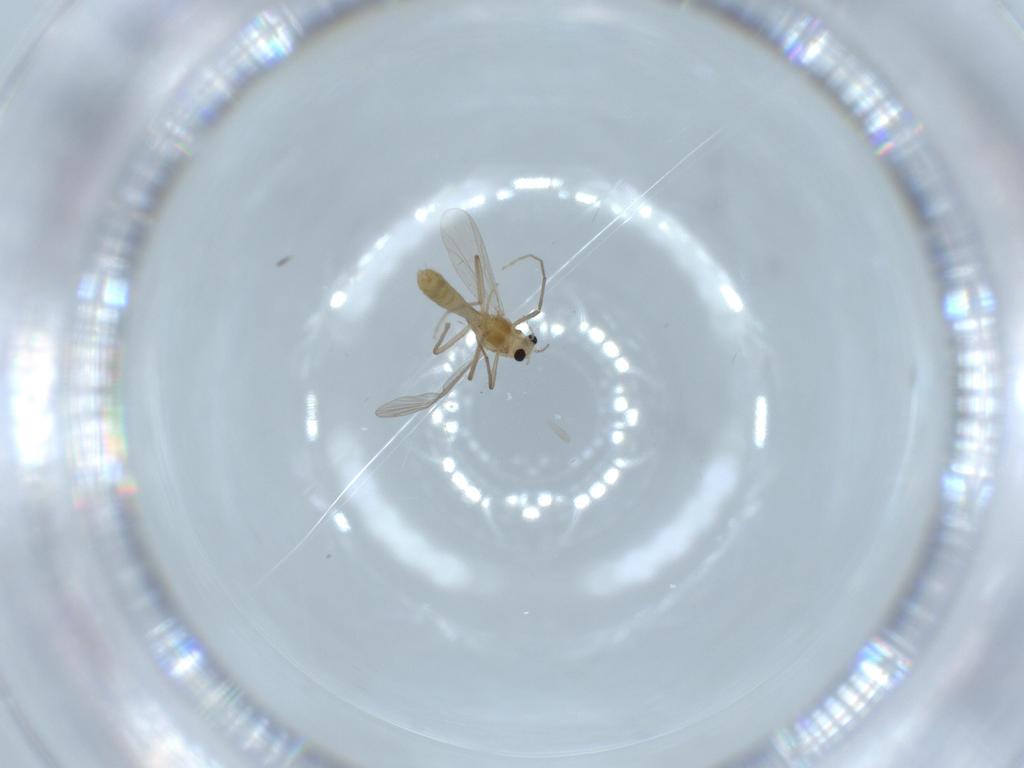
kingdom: Animalia
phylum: Arthropoda
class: Insecta
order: Diptera
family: Chironomidae
